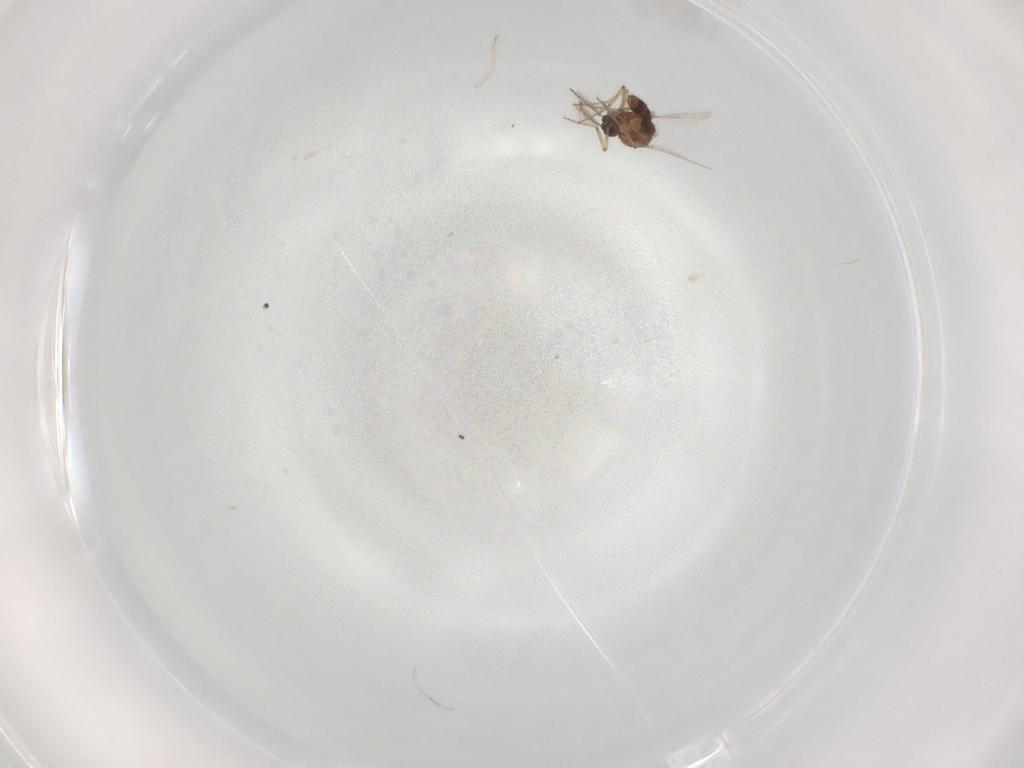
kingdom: Animalia
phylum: Arthropoda
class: Insecta
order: Diptera
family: Ceratopogonidae
